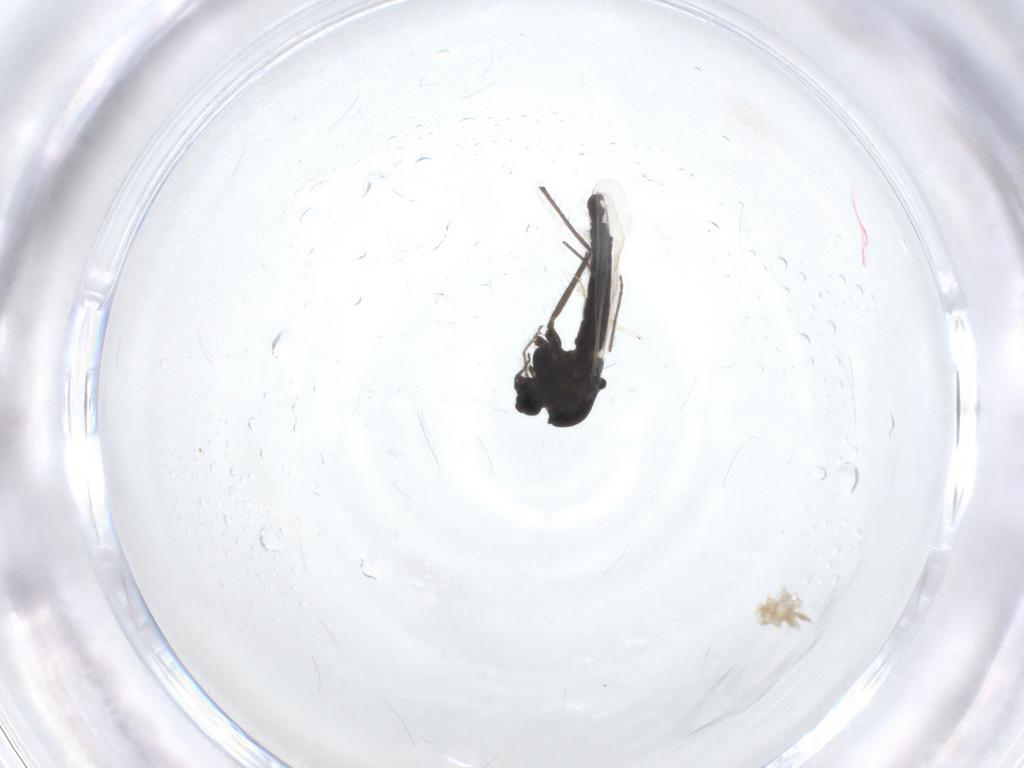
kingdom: Animalia
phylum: Arthropoda
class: Insecta
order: Diptera
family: Chironomidae
